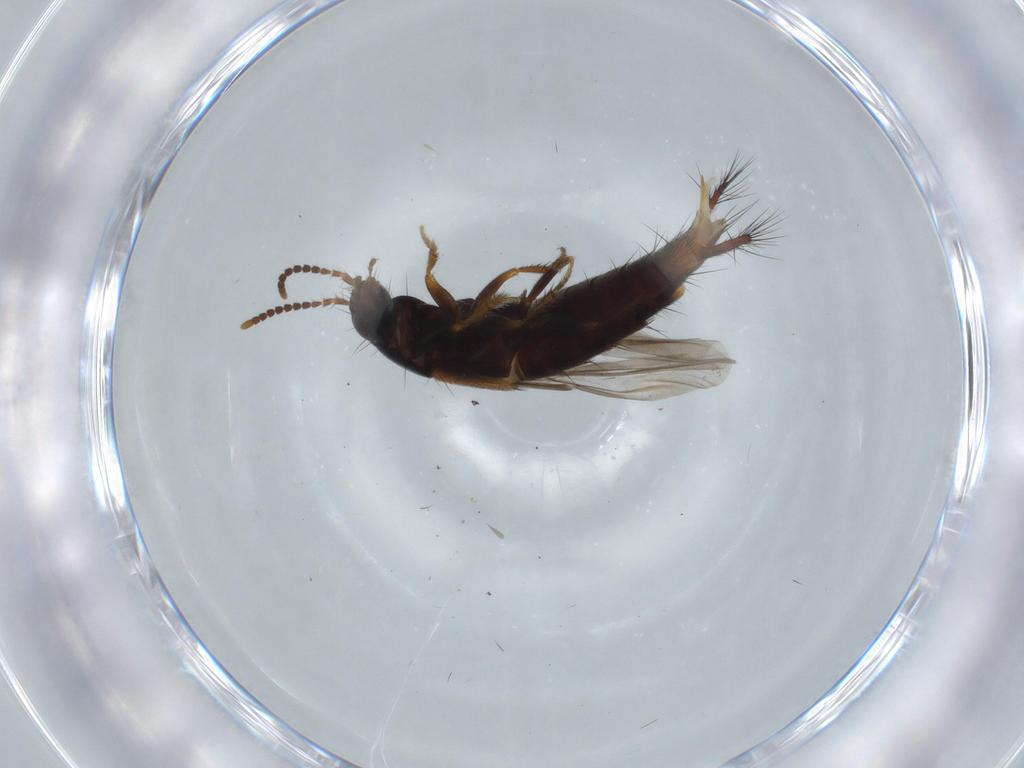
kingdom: Animalia
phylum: Arthropoda
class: Insecta
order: Coleoptera
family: Staphylinidae
